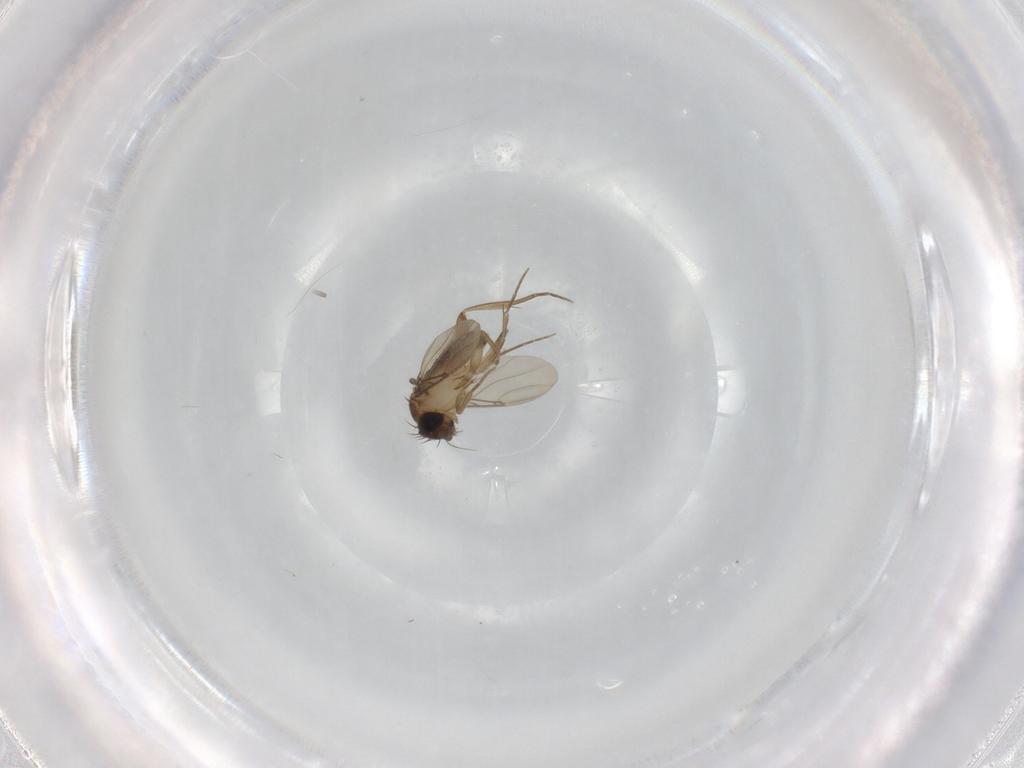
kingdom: Animalia
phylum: Arthropoda
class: Insecta
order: Diptera
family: Phoridae
